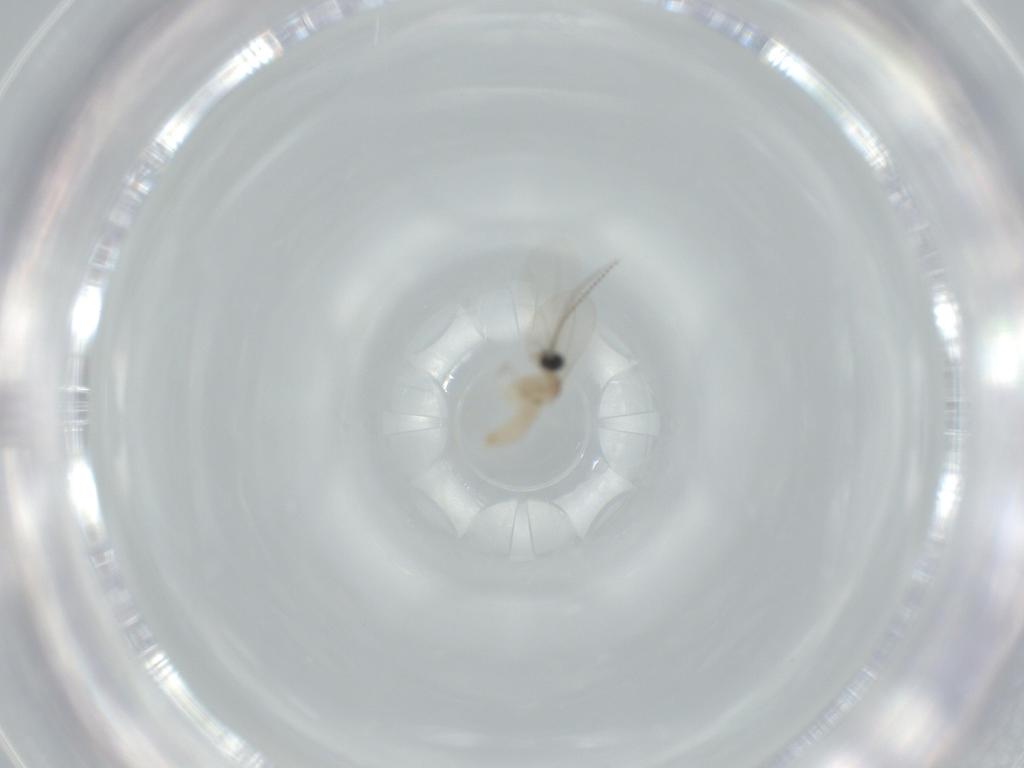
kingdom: Animalia
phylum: Arthropoda
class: Insecta
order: Diptera
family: Cecidomyiidae
